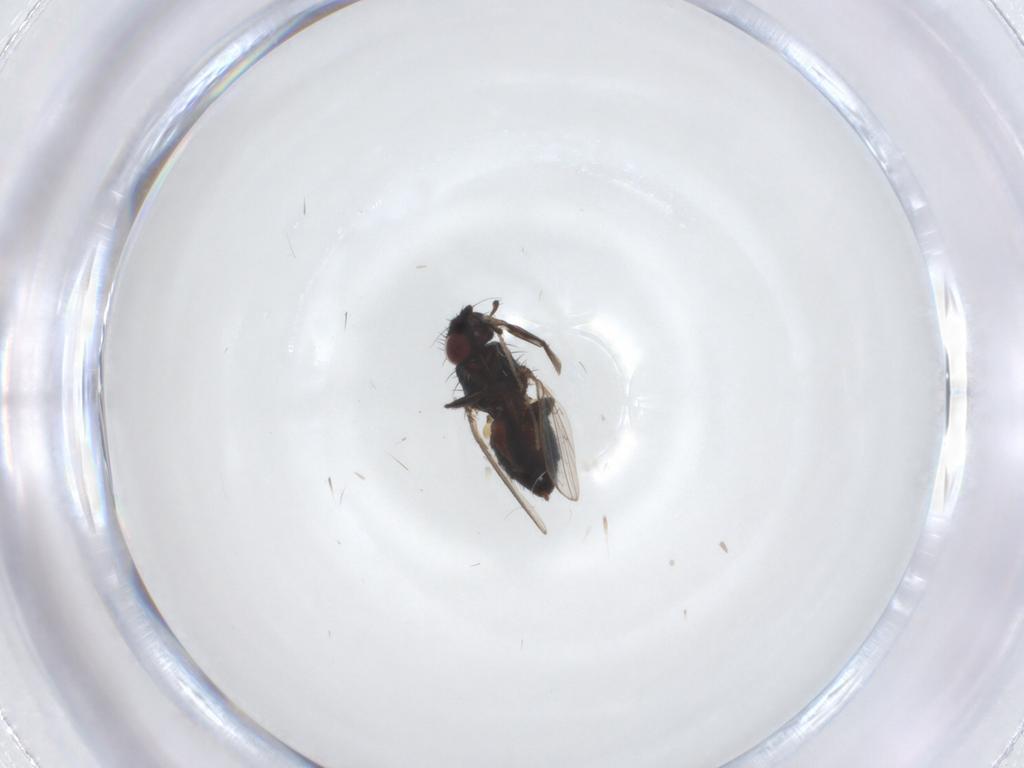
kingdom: Animalia
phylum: Arthropoda
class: Insecta
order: Diptera
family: Milichiidae
